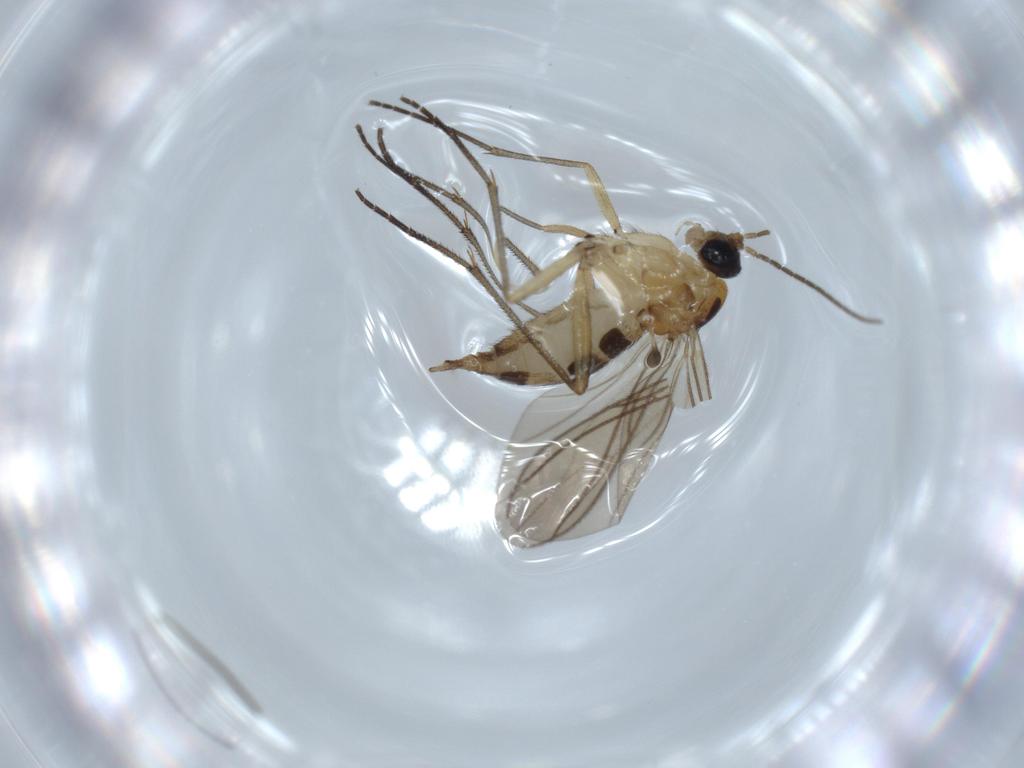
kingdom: Animalia
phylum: Arthropoda
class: Insecta
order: Diptera
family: Sciaridae
